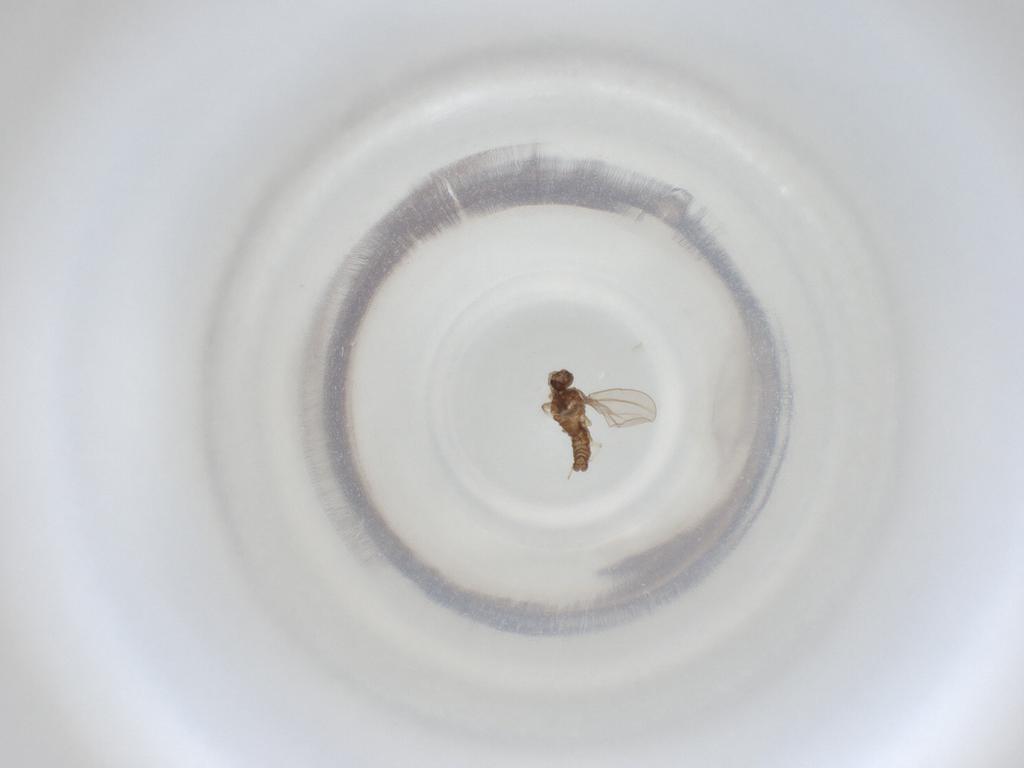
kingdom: Animalia
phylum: Arthropoda
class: Insecta
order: Diptera
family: Cecidomyiidae
